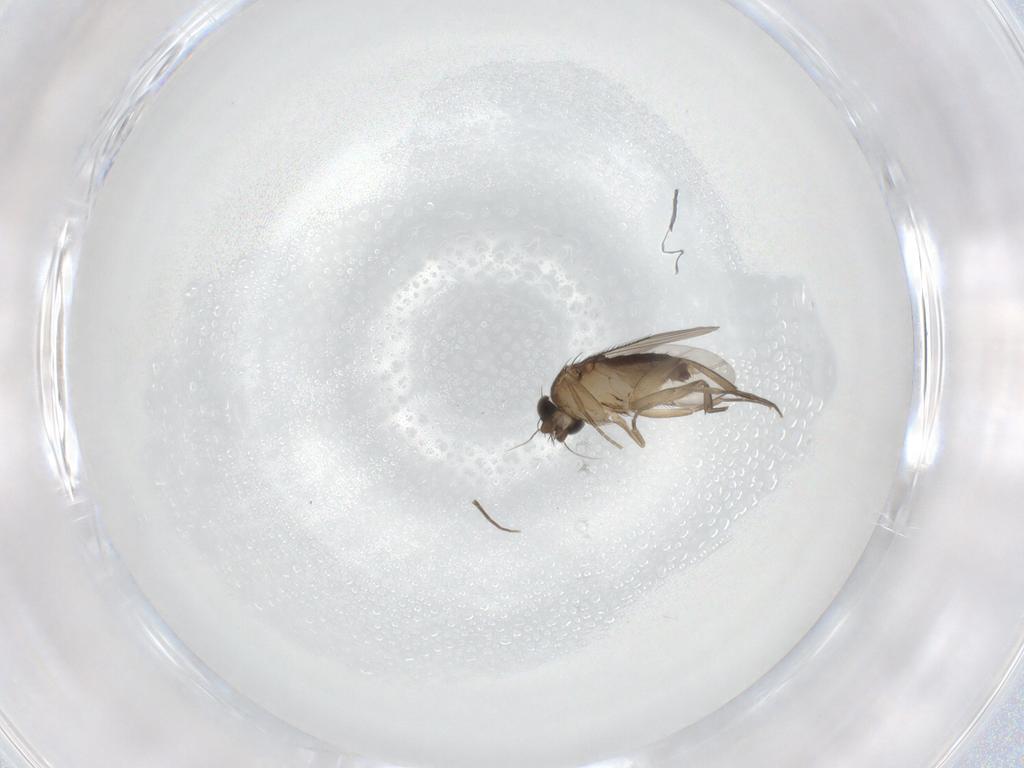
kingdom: Animalia
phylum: Arthropoda
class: Insecta
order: Diptera
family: Phoridae
